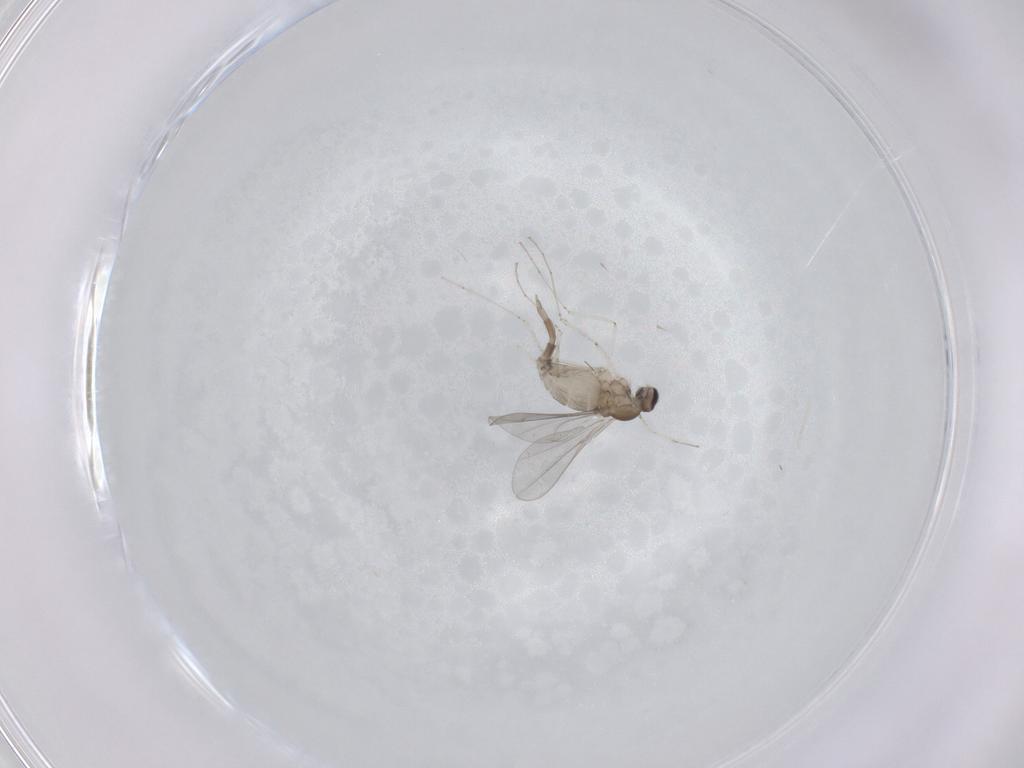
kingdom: Animalia
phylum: Arthropoda
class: Insecta
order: Diptera
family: Cecidomyiidae
